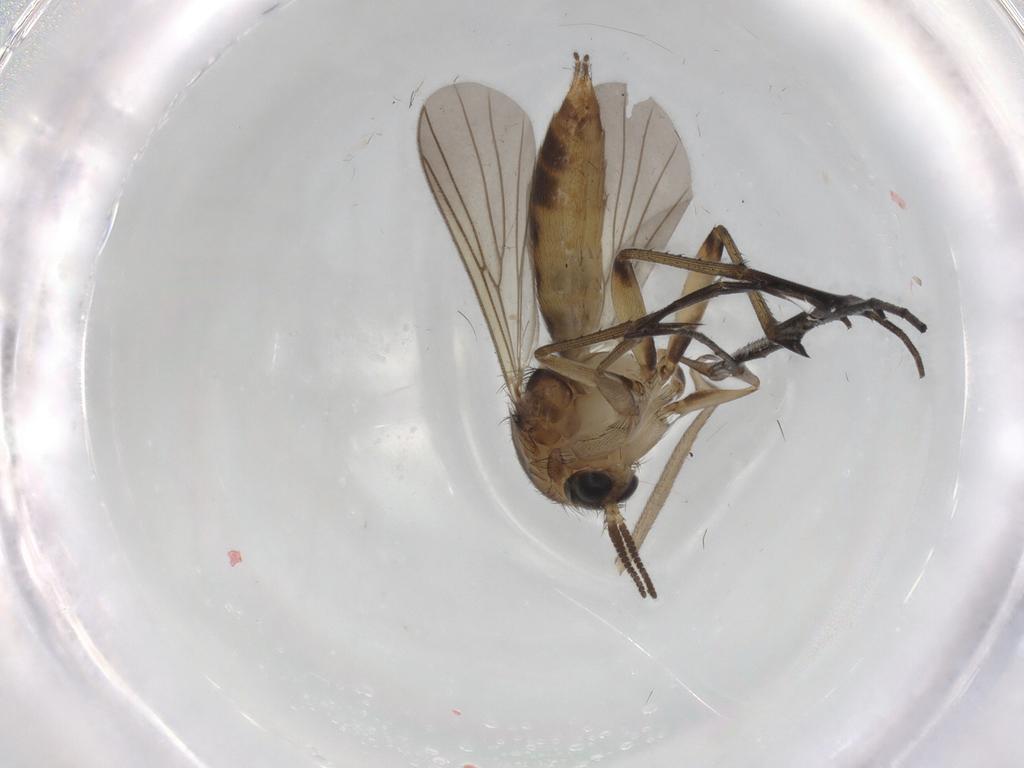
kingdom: Animalia
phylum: Arthropoda
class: Insecta
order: Diptera
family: Mycetophilidae
